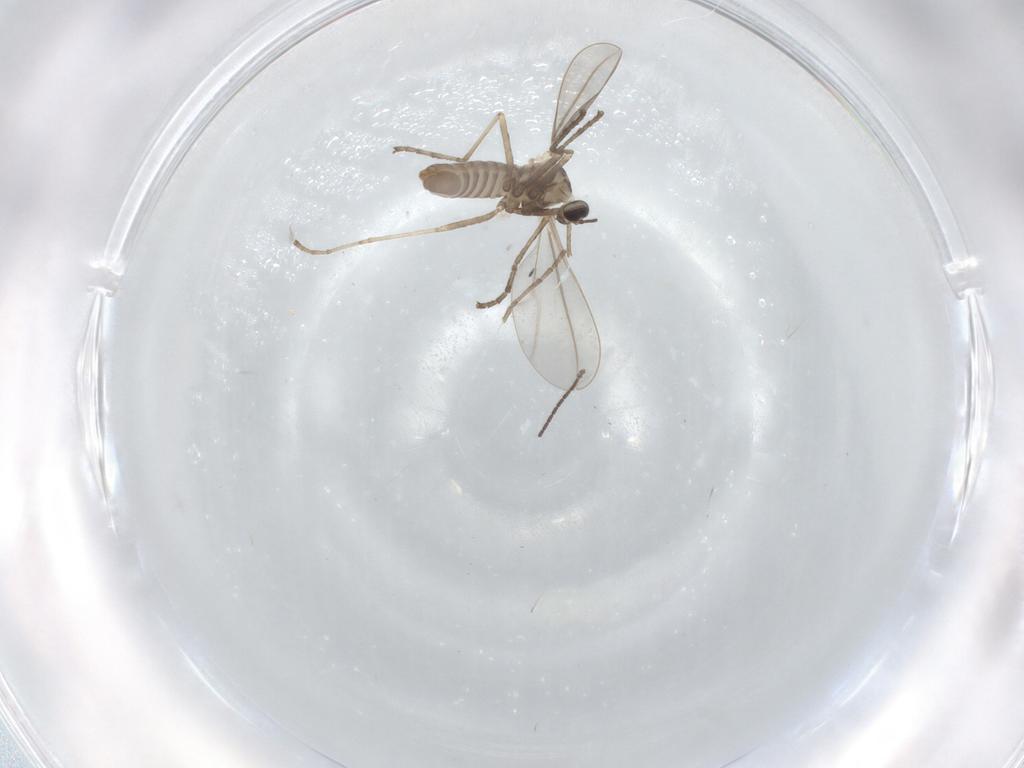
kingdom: Animalia
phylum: Arthropoda
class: Insecta
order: Diptera
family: Cecidomyiidae
